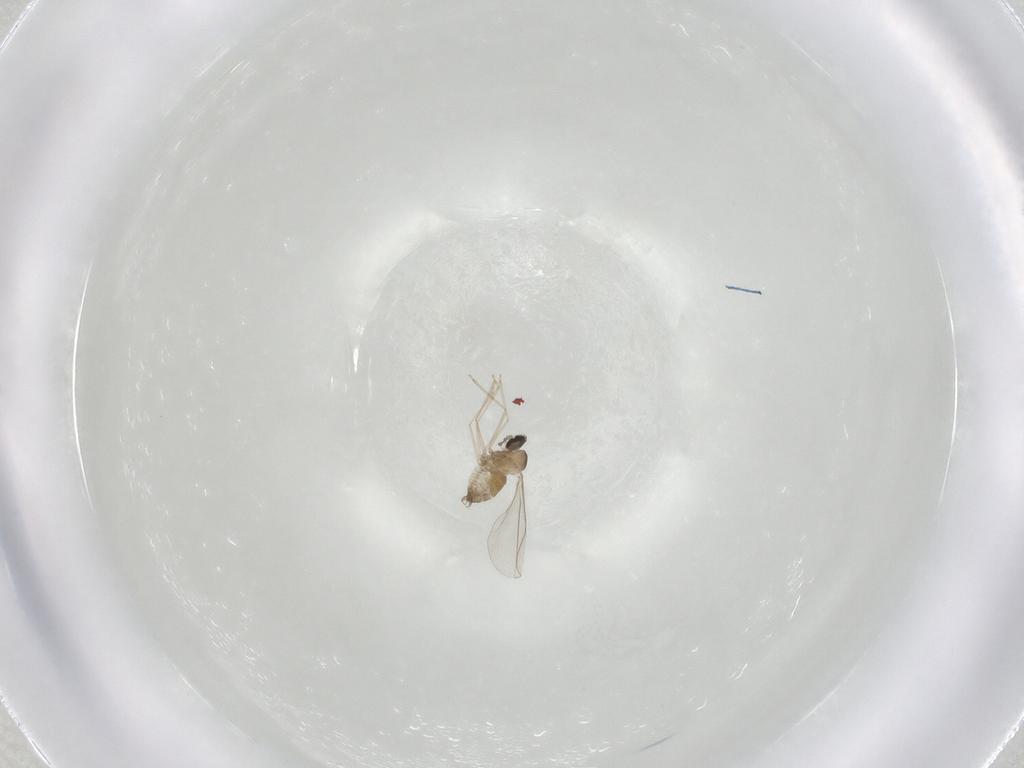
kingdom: Animalia
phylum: Arthropoda
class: Insecta
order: Diptera
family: Cecidomyiidae
